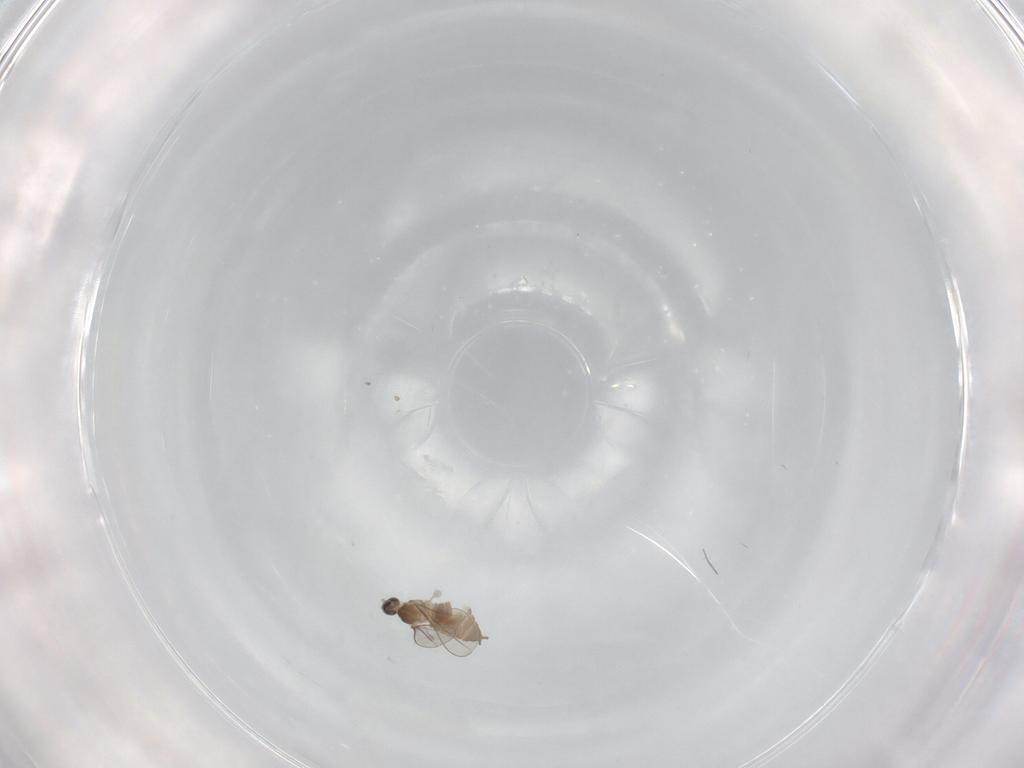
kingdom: Animalia
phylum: Arthropoda
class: Insecta
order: Diptera
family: Cecidomyiidae
